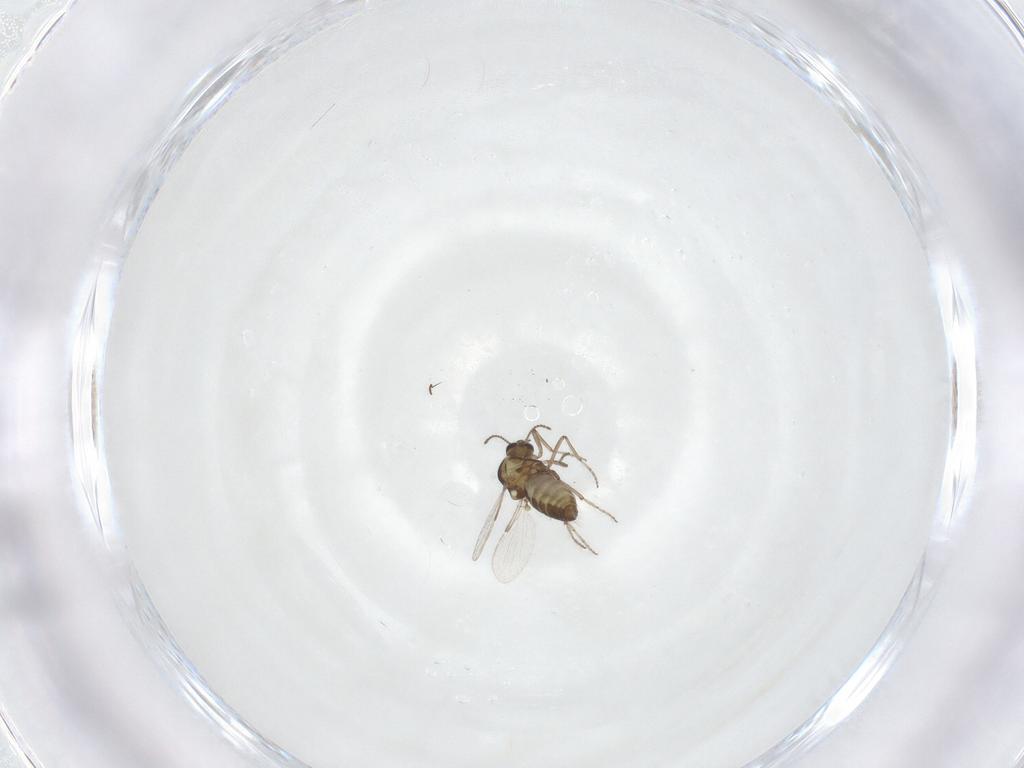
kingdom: Animalia
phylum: Arthropoda
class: Insecta
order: Diptera
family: Ceratopogonidae
